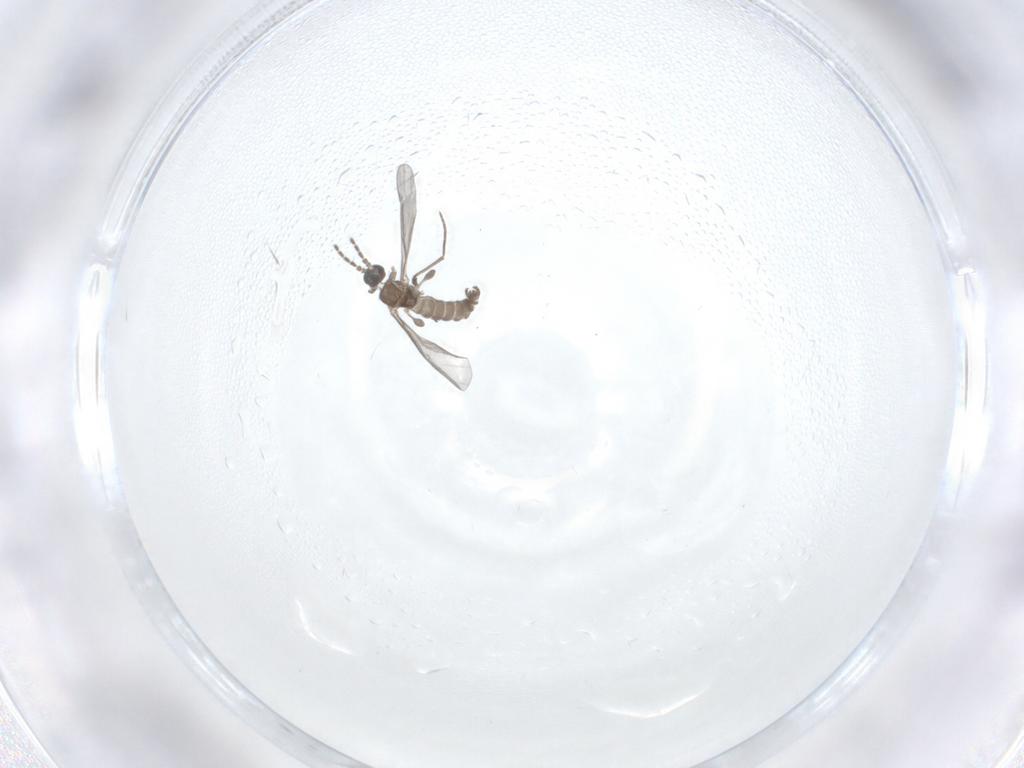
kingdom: Animalia
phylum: Arthropoda
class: Insecta
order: Diptera
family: Sciaridae
